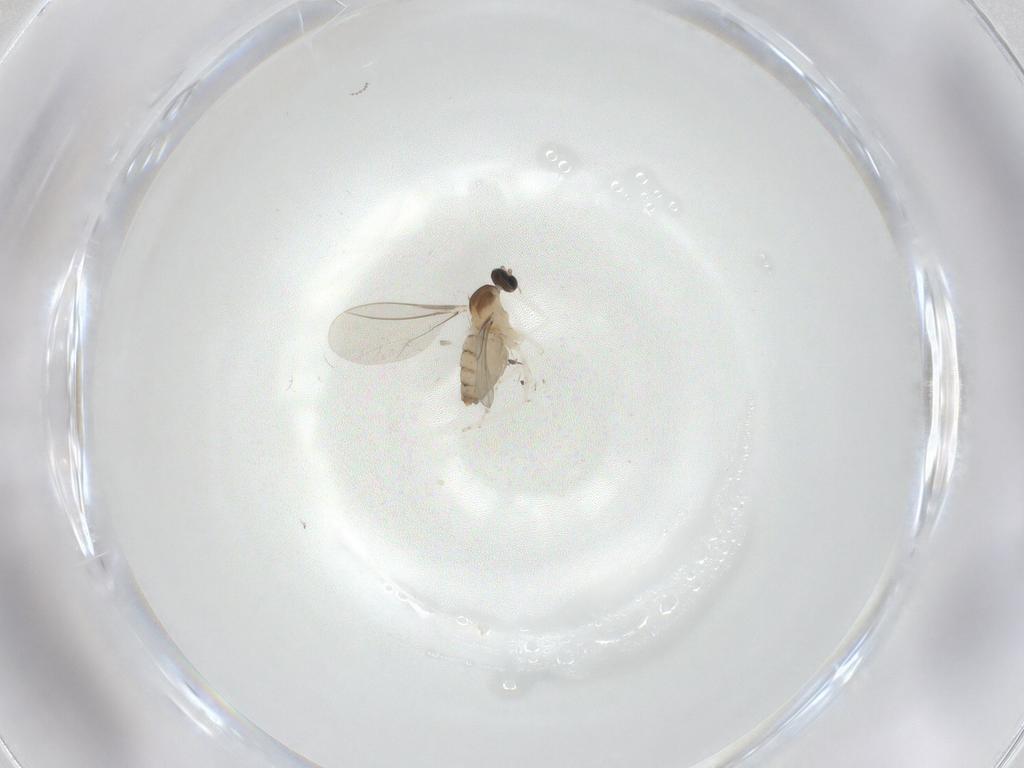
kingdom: Animalia
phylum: Arthropoda
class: Insecta
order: Diptera
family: Cecidomyiidae
